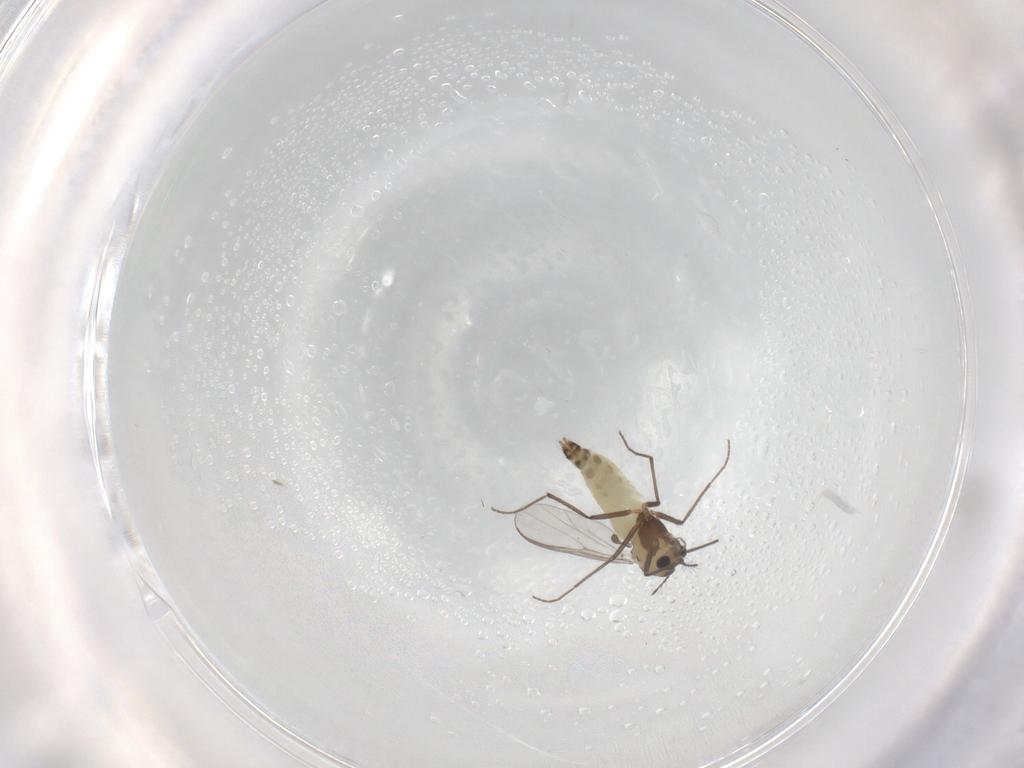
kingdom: Animalia
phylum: Arthropoda
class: Insecta
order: Diptera
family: Chironomidae
